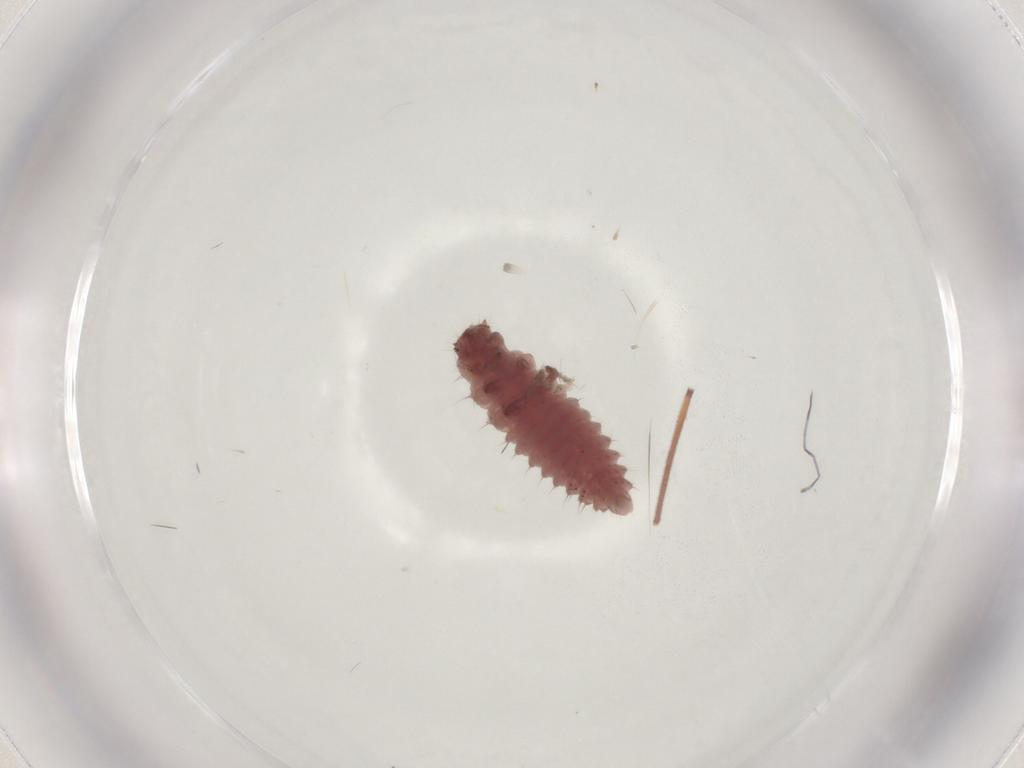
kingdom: Animalia
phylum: Arthropoda
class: Insecta
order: Coleoptera
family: Coccinellidae
